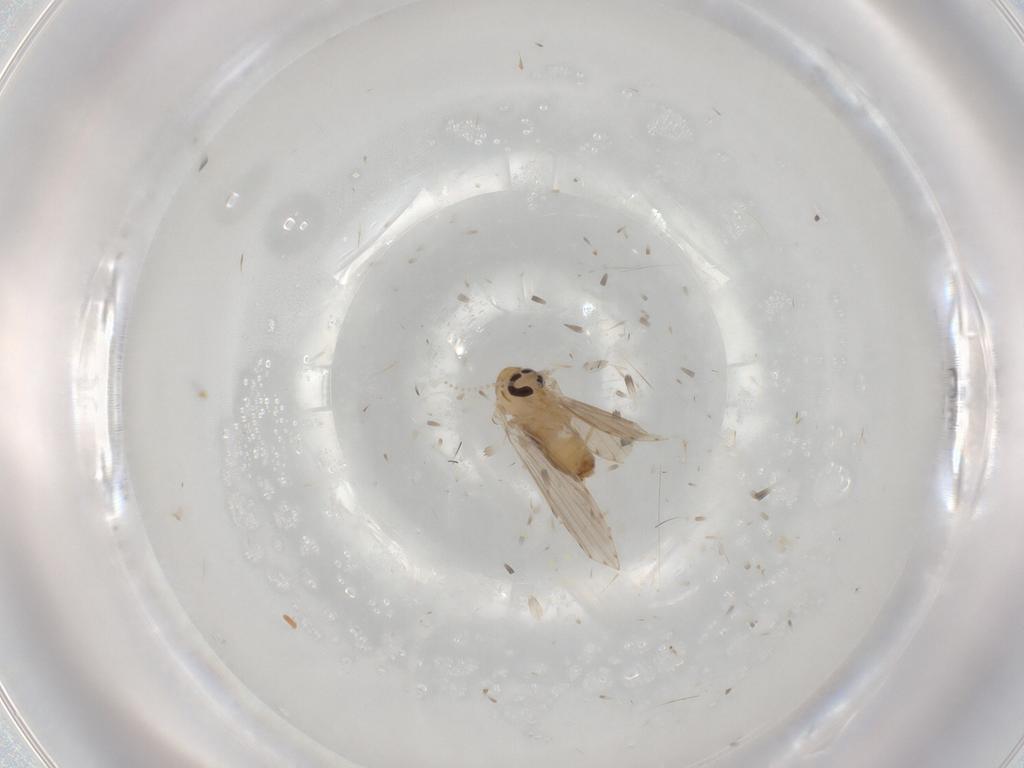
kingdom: Animalia
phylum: Arthropoda
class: Insecta
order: Diptera
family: Psychodidae
